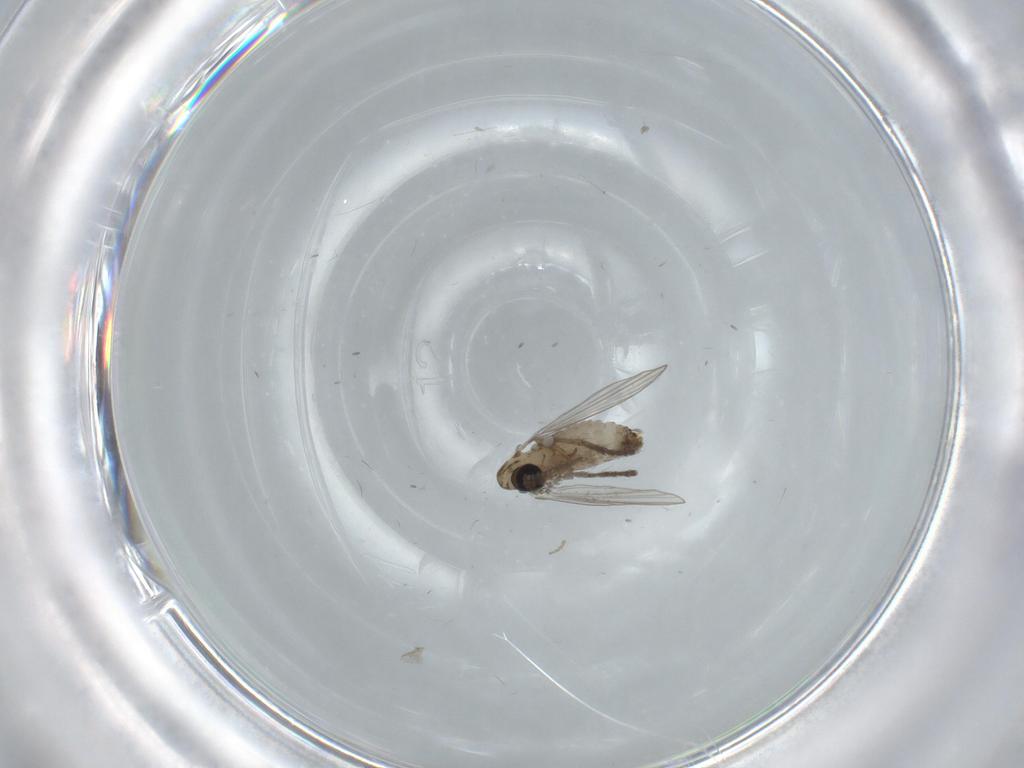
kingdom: Animalia
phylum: Arthropoda
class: Insecta
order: Diptera
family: Psychodidae
